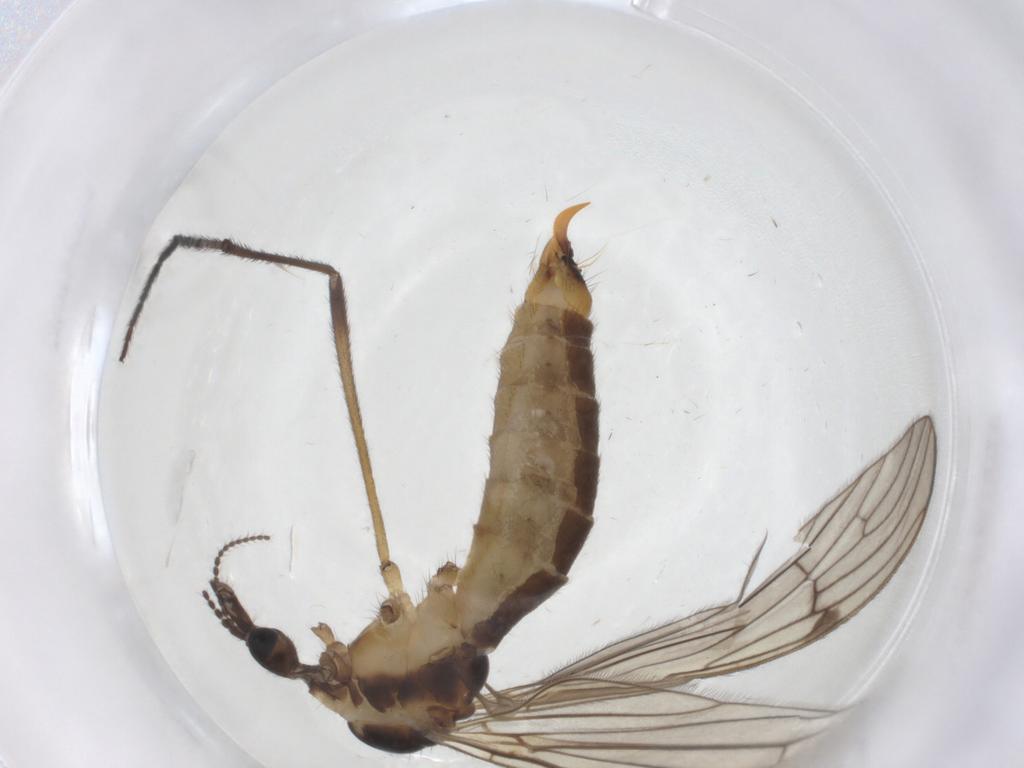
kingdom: Animalia
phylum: Arthropoda
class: Insecta
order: Diptera
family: Limoniidae
